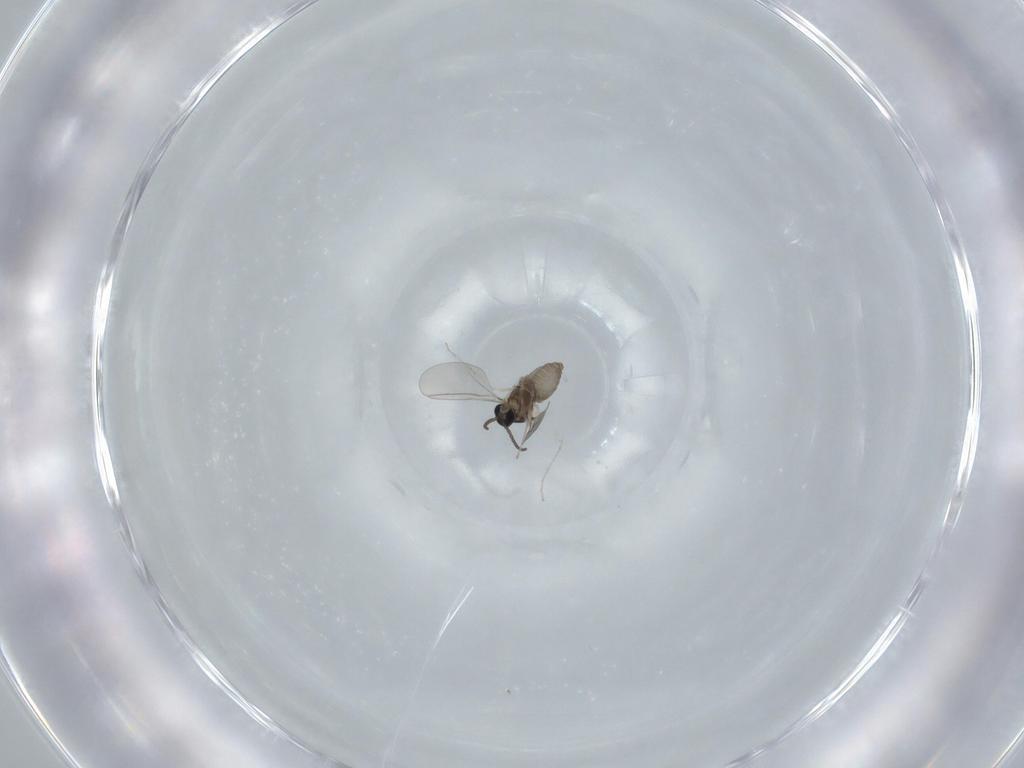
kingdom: Animalia
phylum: Arthropoda
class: Insecta
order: Diptera
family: Cecidomyiidae
